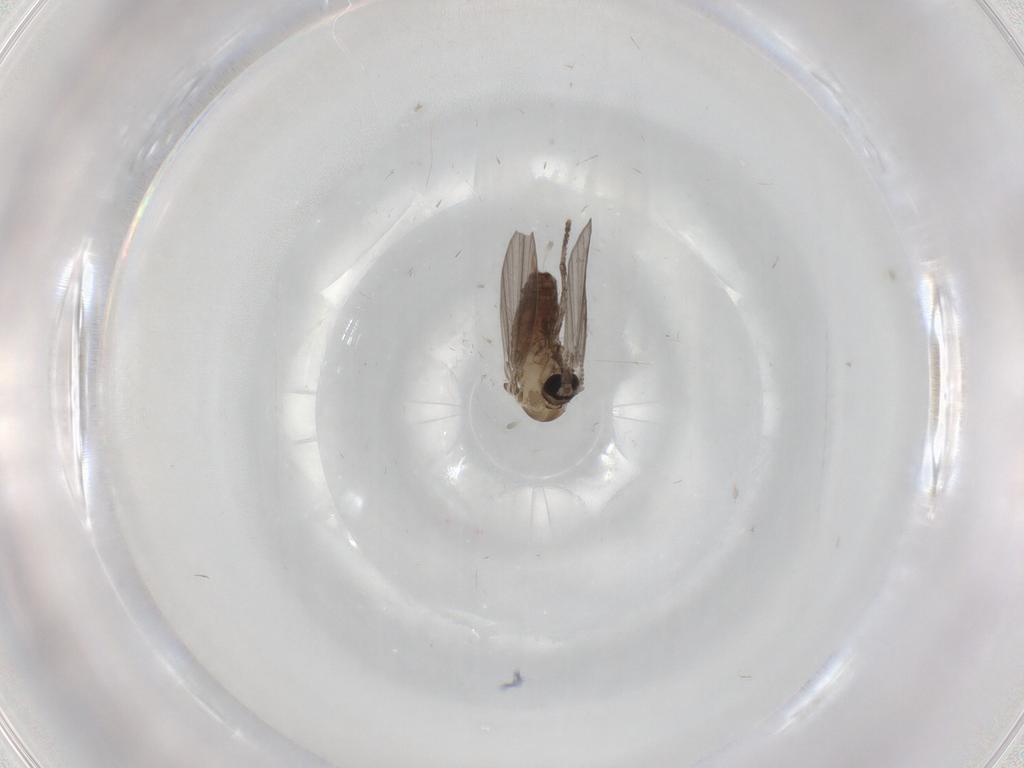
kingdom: Animalia
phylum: Arthropoda
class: Insecta
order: Diptera
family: Psychodidae
